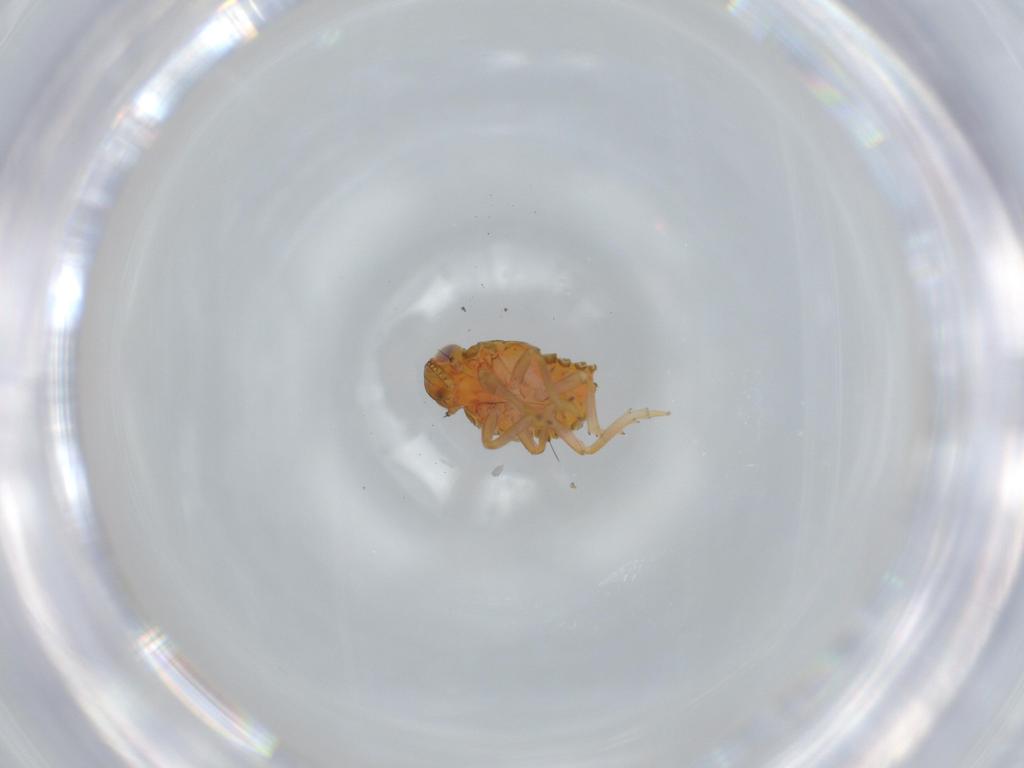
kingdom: Animalia
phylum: Arthropoda
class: Insecta
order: Hemiptera
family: Issidae
